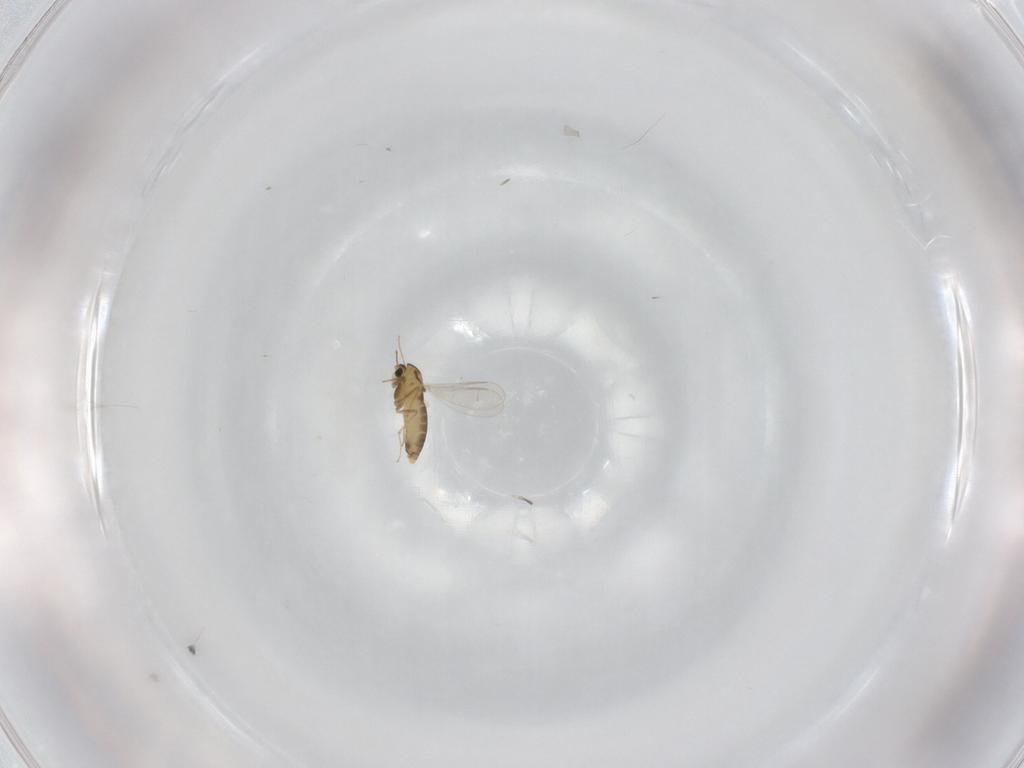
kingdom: Animalia
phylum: Arthropoda
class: Insecta
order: Diptera
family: Chironomidae
